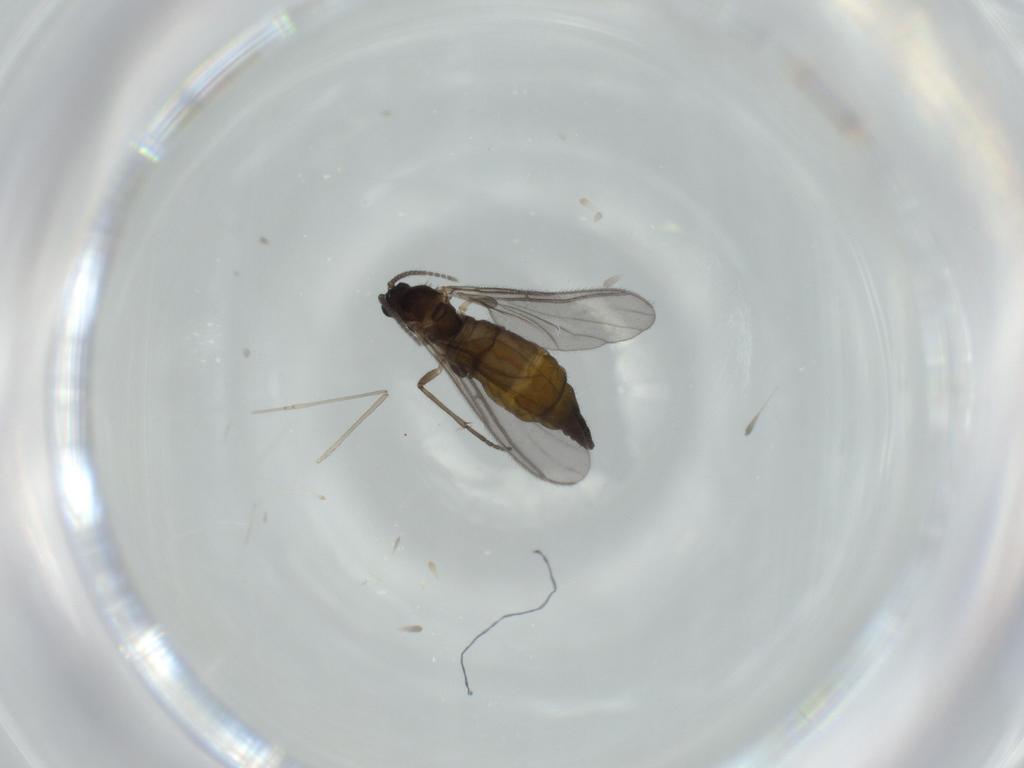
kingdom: Animalia
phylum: Arthropoda
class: Insecta
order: Diptera
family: Sciaridae
